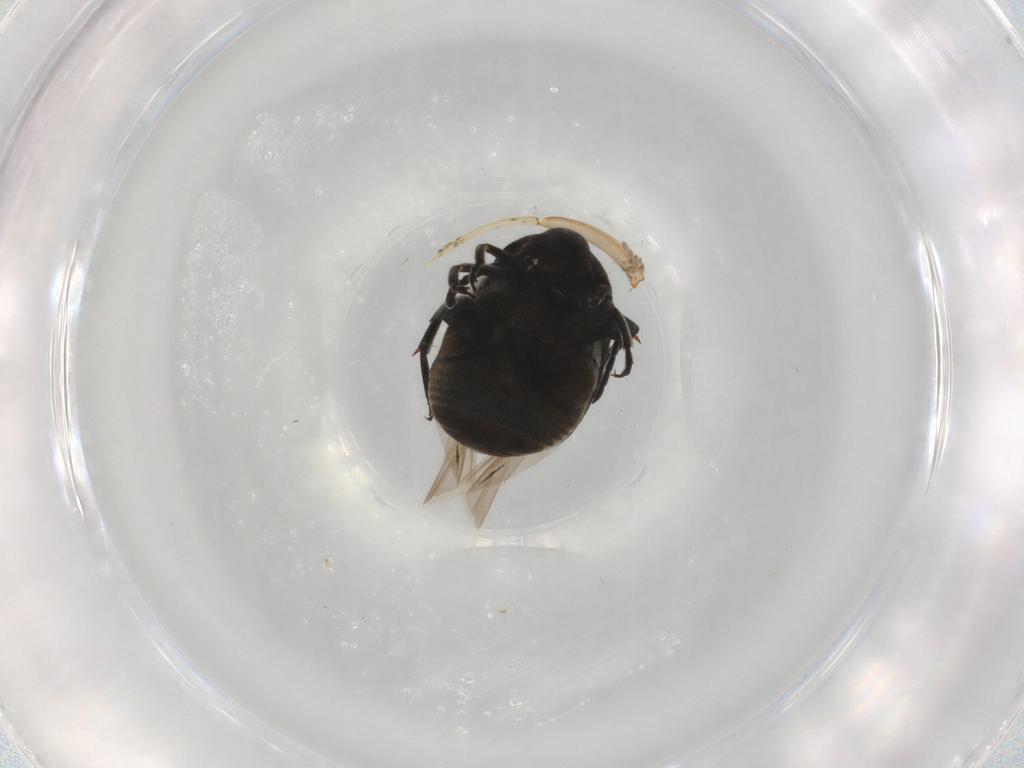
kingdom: Animalia
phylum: Arthropoda
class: Insecta
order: Coleoptera
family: Chrysomelidae
